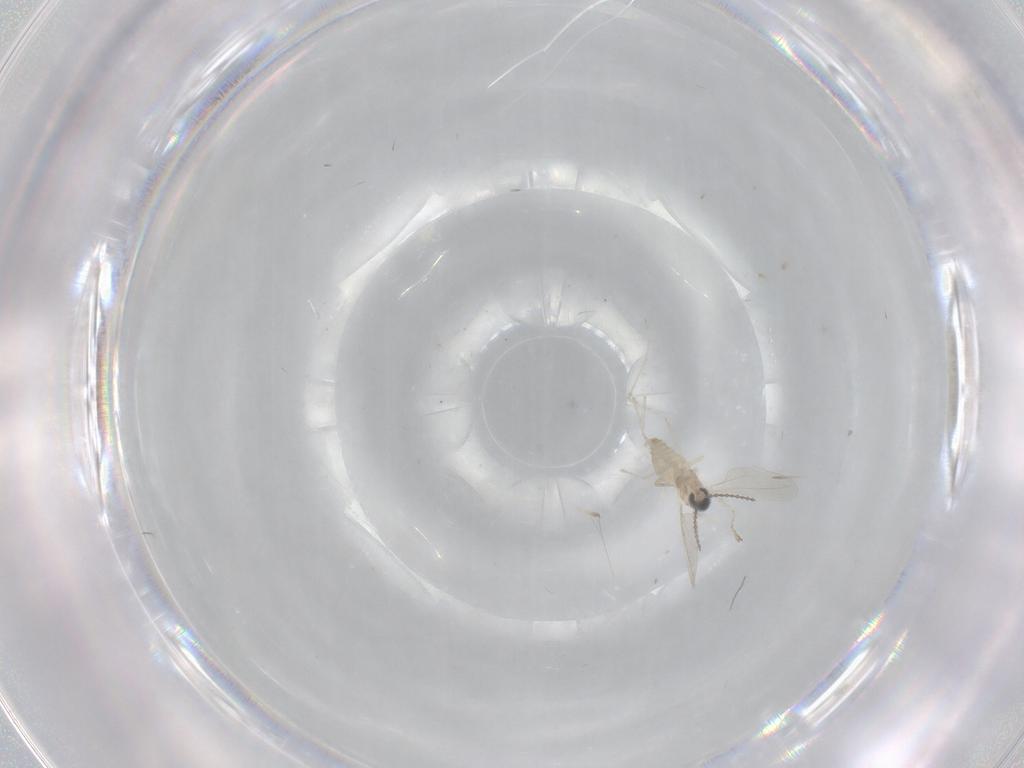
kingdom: Animalia
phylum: Arthropoda
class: Insecta
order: Diptera
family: Cecidomyiidae
